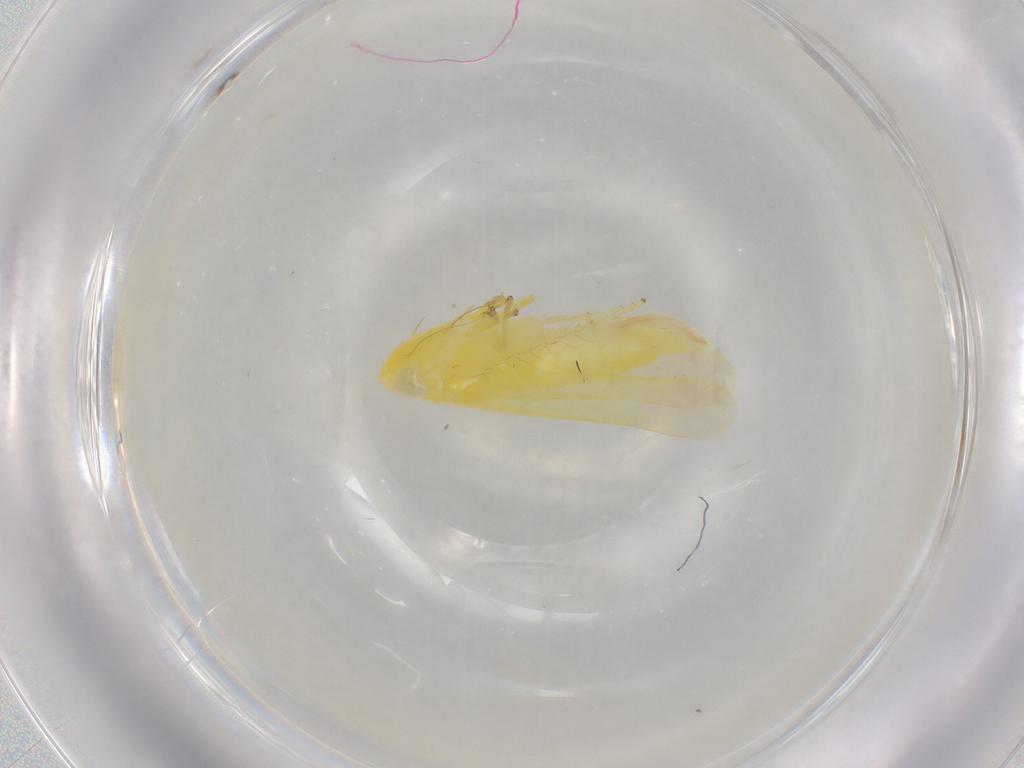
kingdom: Animalia
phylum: Arthropoda
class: Insecta
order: Hemiptera
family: Cicadellidae
